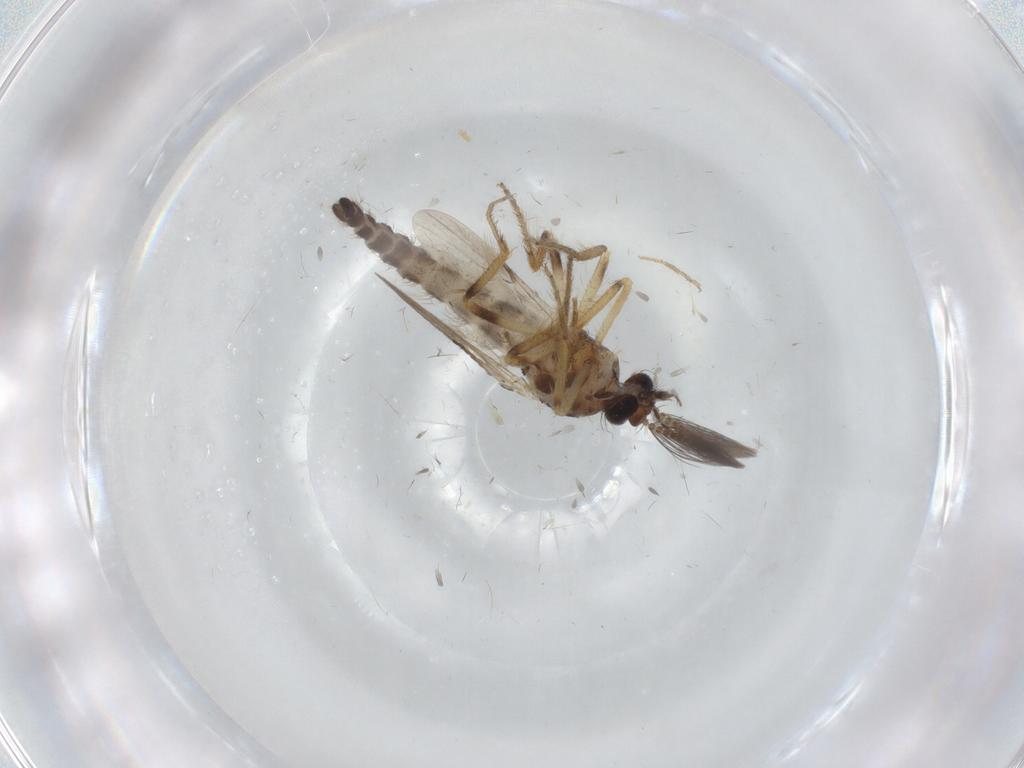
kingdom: Animalia
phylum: Arthropoda
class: Insecta
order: Diptera
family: Ceratopogonidae
